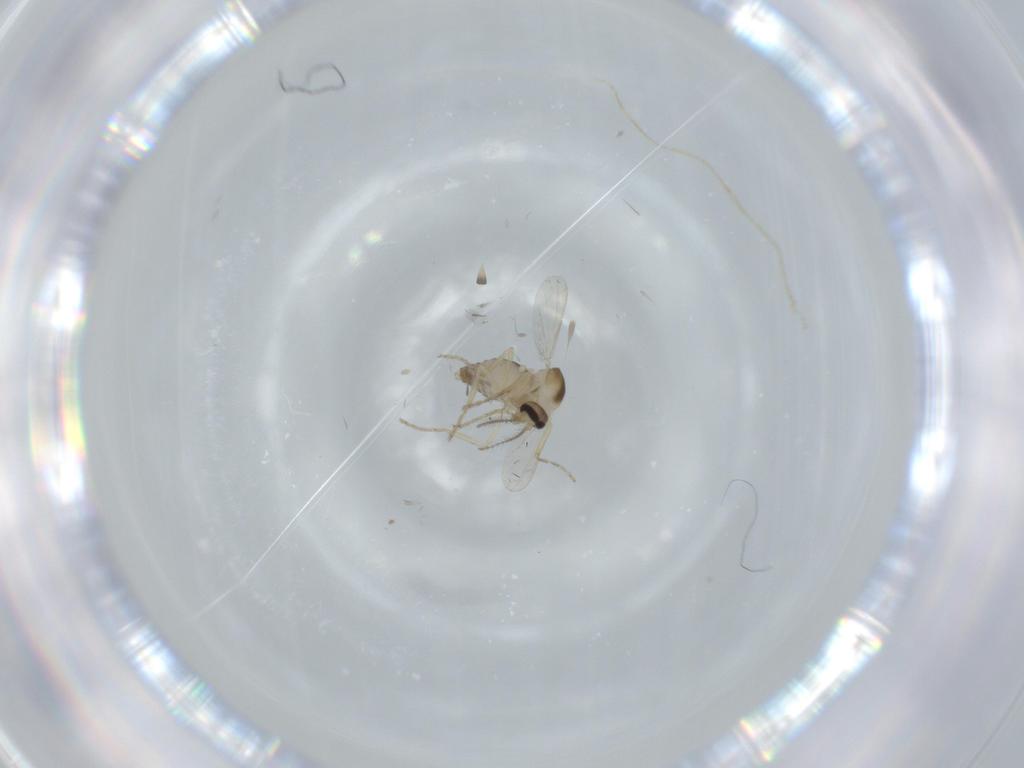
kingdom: Animalia
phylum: Arthropoda
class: Insecta
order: Diptera
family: Ceratopogonidae
